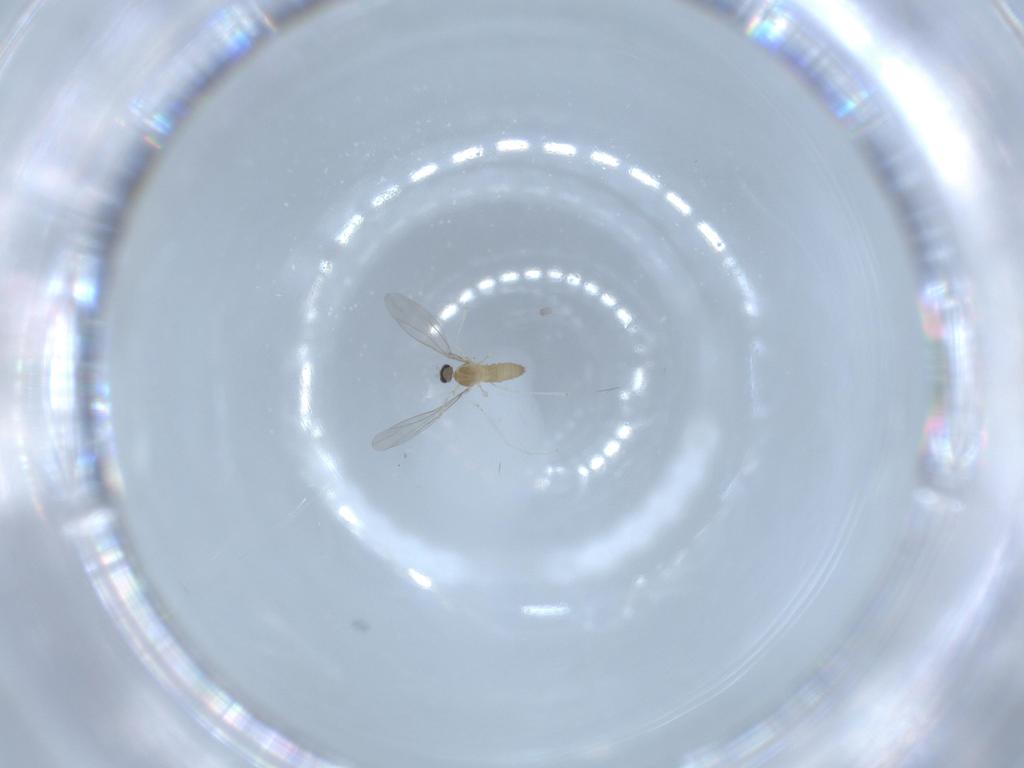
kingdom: Animalia
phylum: Arthropoda
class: Insecta
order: Diptera
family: Cecidomyiidae
